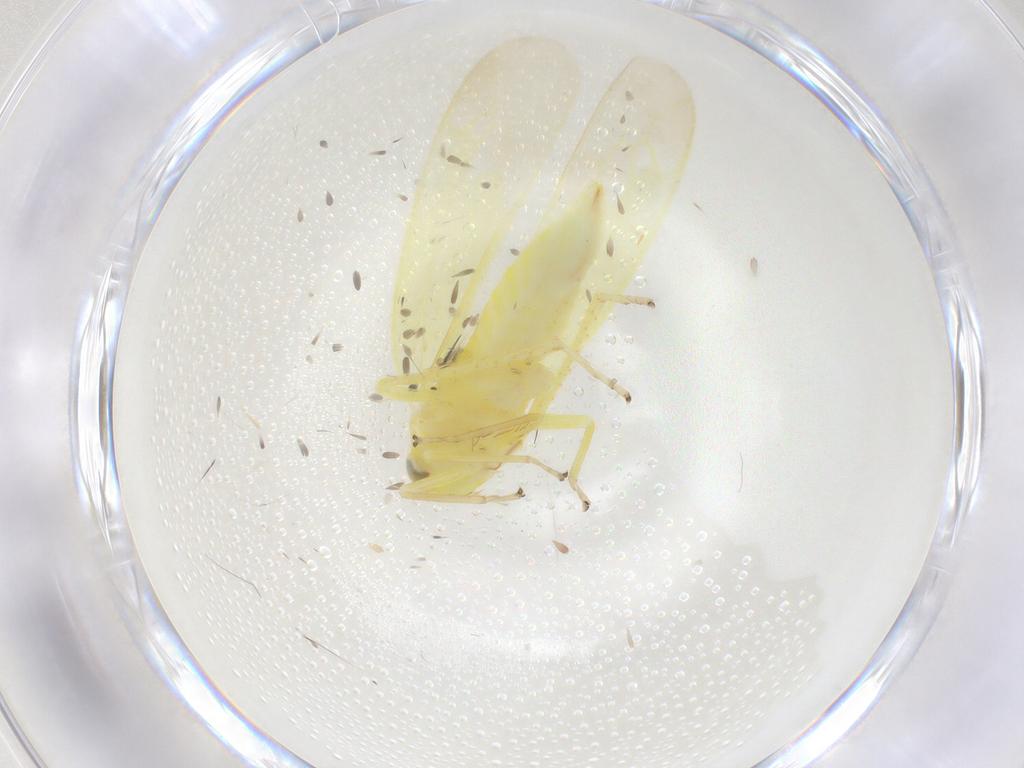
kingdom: Animalia
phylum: Arthropoda
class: Insecta
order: Hemiptera
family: Cicadellidae
